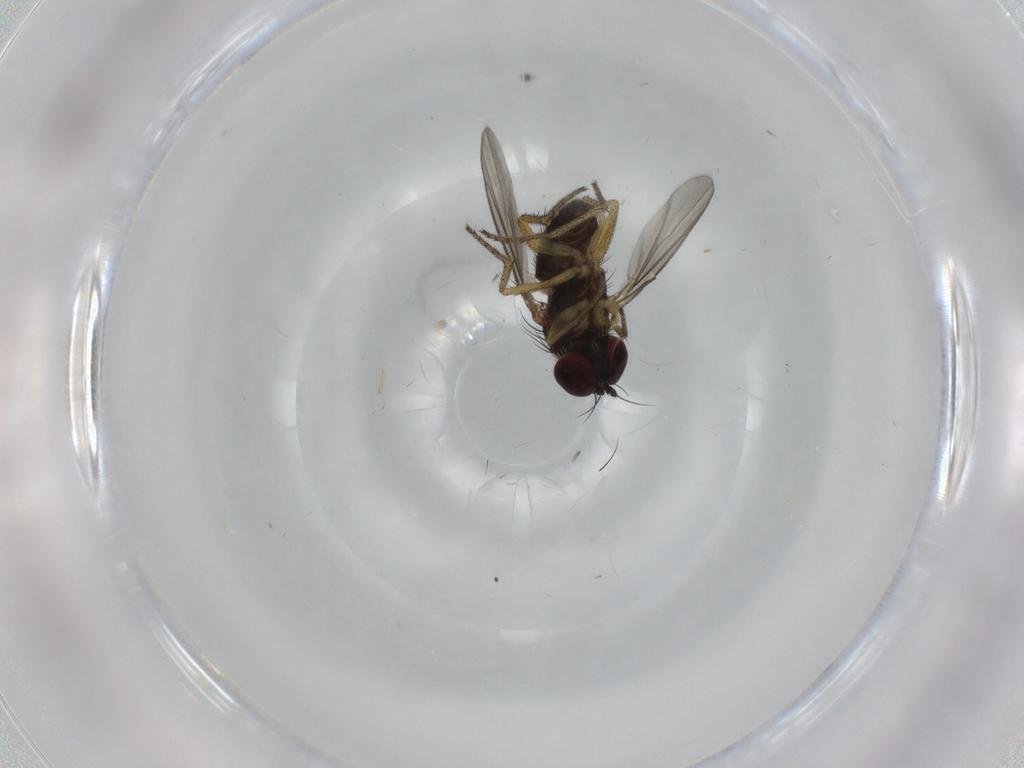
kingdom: Animalia
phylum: Arthropoda
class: Insecta
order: Diptera
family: Dolichopodidae
